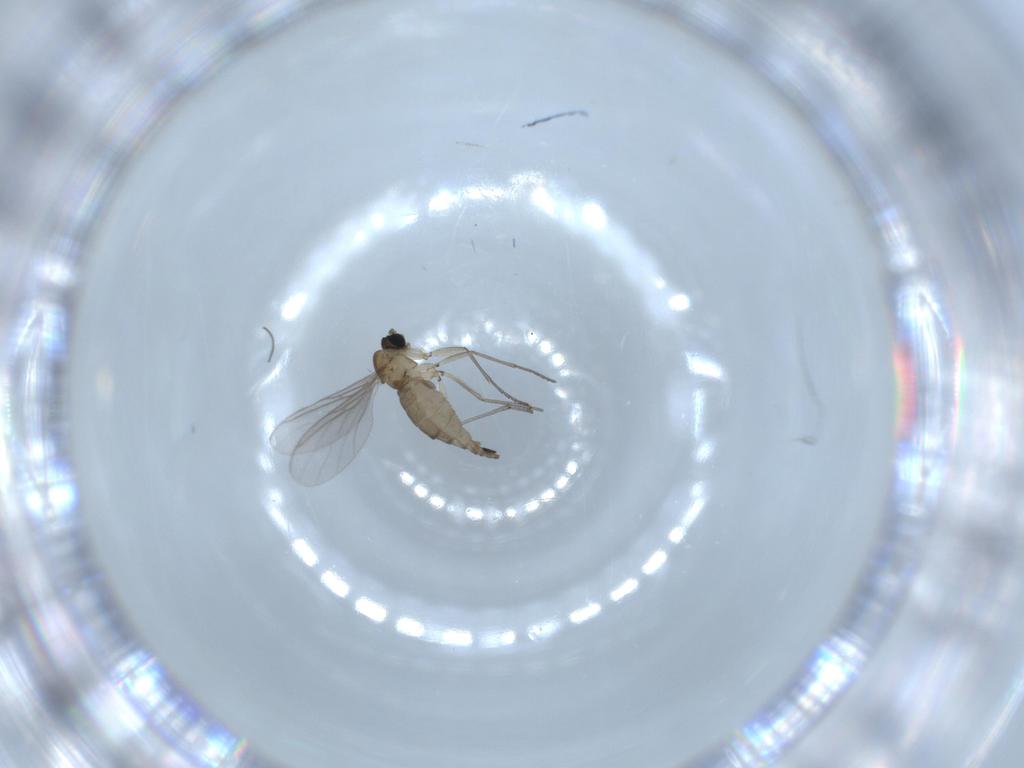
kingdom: Animalia
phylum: Arthropoda
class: Insecta
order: Diptera
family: Sciaridae
